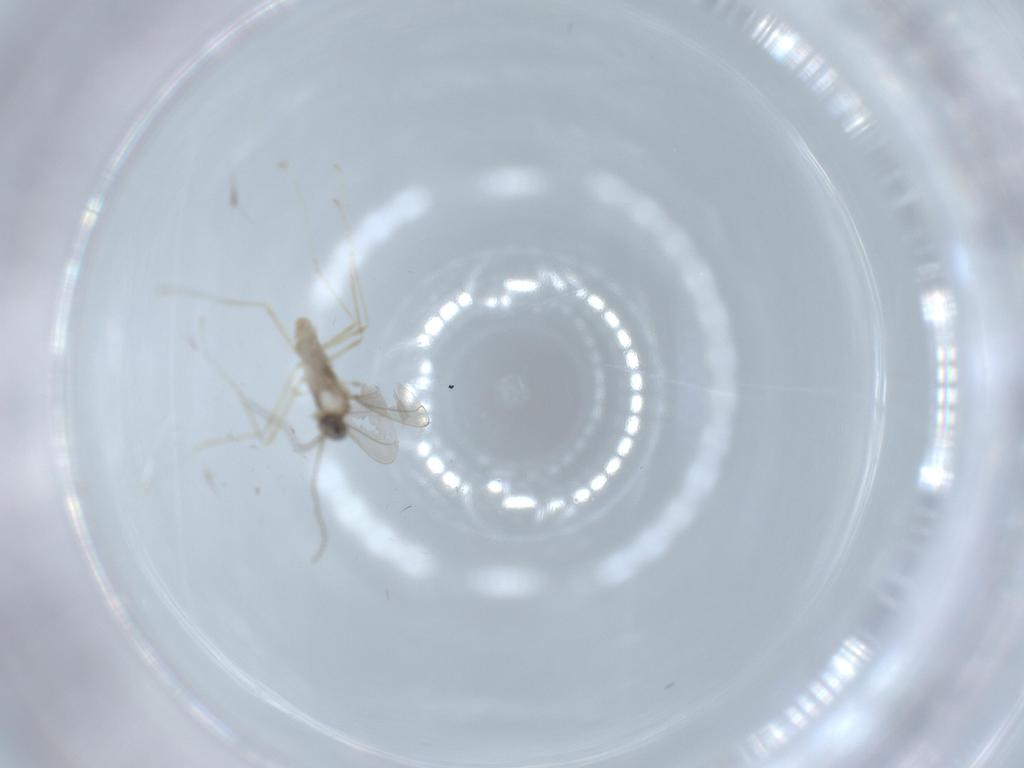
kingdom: Animalia
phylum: Arthropoda
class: Insecta
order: Diptera
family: Cecidomyiidae
